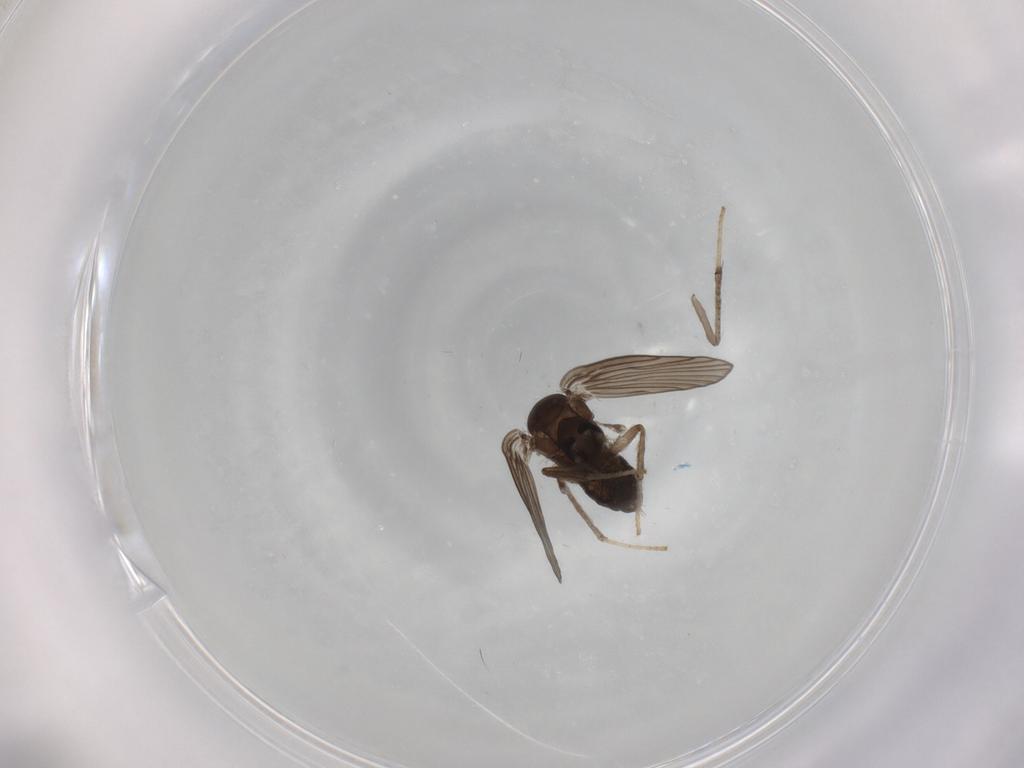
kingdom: Animalia
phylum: Arthropoda
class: Insecta
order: Diptera
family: Psychodidae
